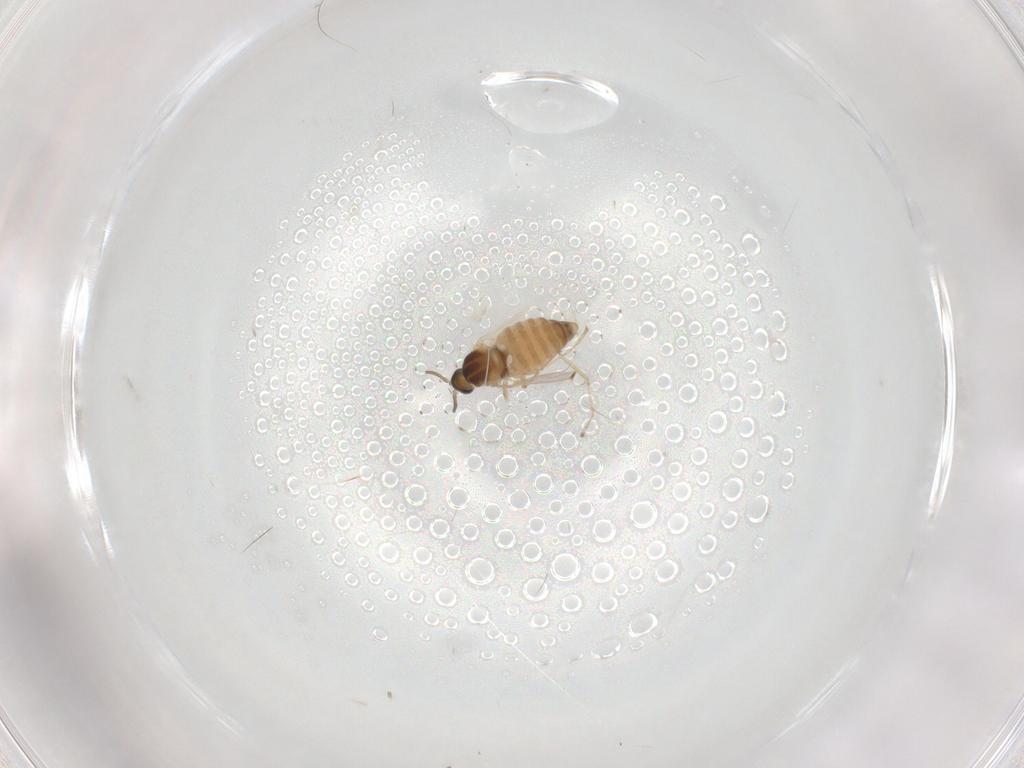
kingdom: Animalia
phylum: Arthropoda
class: Insecta
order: Diptera
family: Cecidomyiidae
